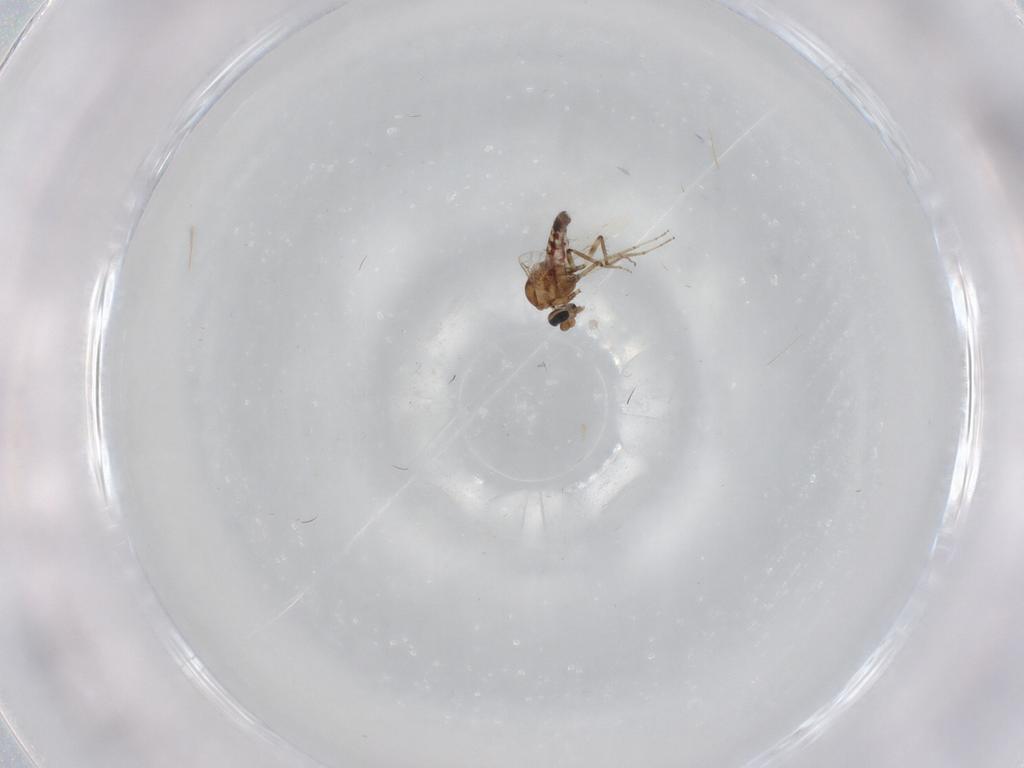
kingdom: Animalia
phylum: Arthropoda
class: Insecta
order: Diptera
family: Ceratopogonidae
